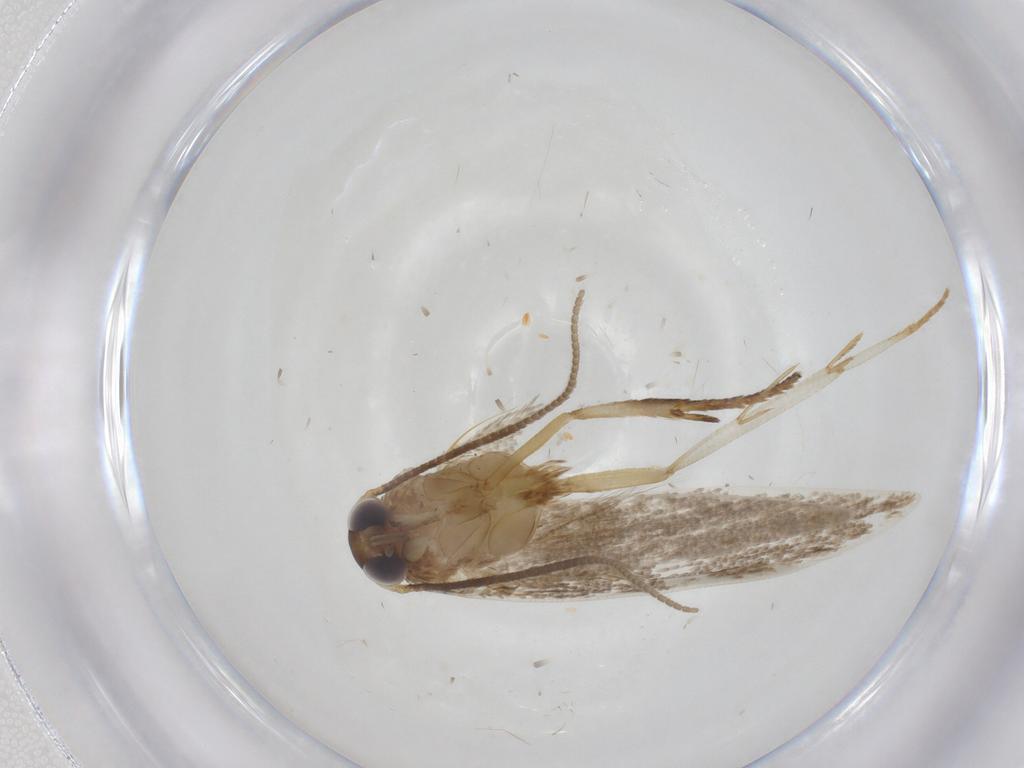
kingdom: Animalia
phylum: Arthropoda
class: Insecta
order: Lepidoptera
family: Blastobasidae
